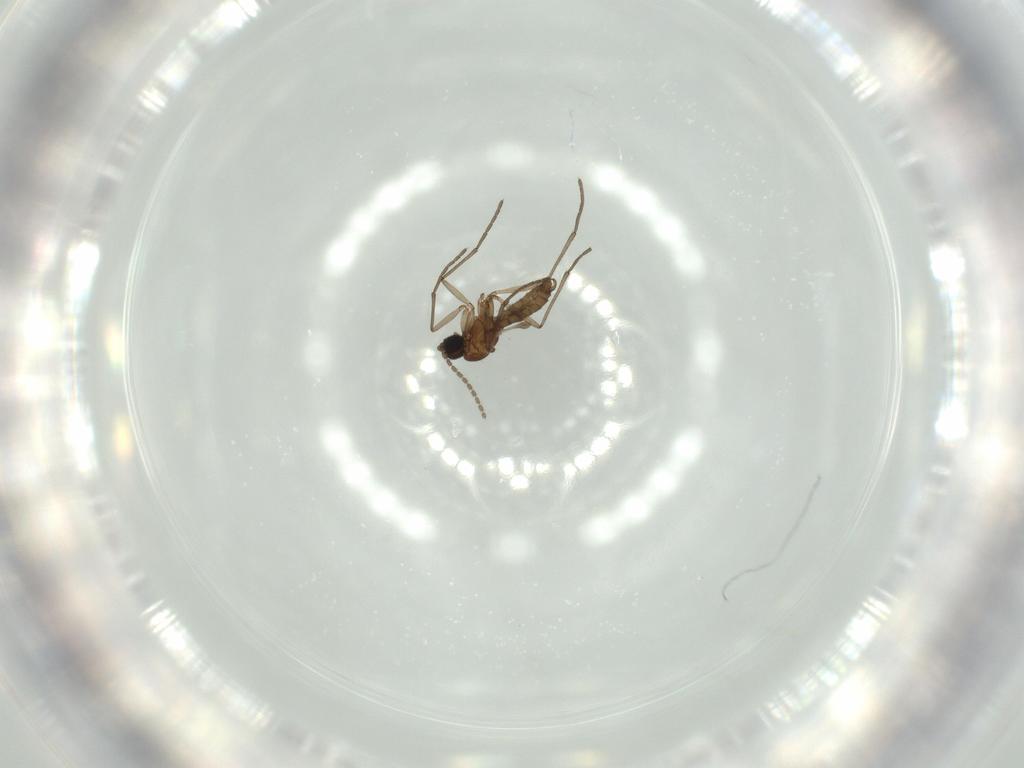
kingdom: Animalia
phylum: Arthropoda
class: Insecta
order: Diptera
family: Sciaridae
